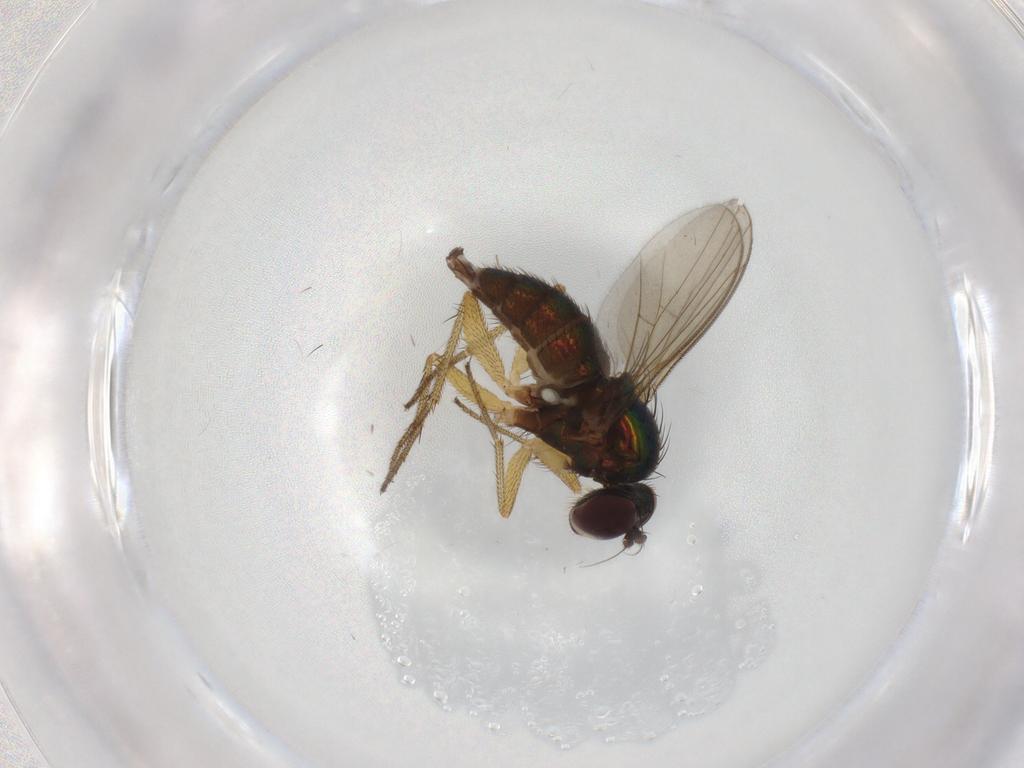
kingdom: Animalia
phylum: Arthropoda
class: Insecta
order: Diptera
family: Dolichopodidae
